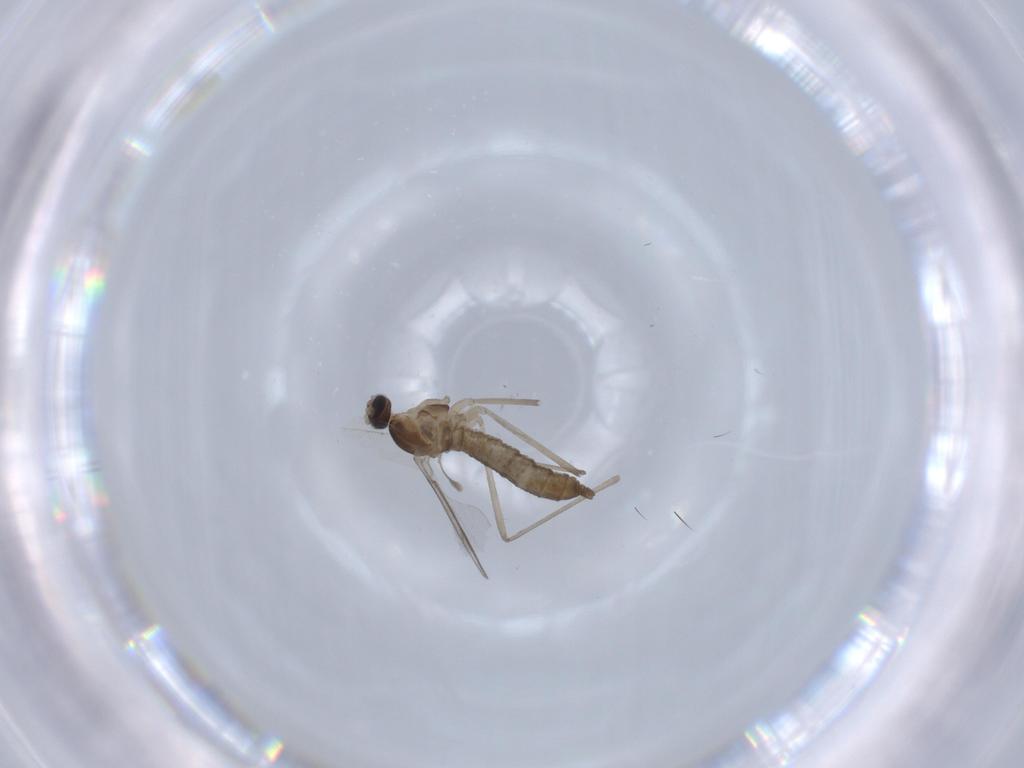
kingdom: Animalia
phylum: Arthropoda
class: Insecta
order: Diptera
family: Cecidomyiidae
